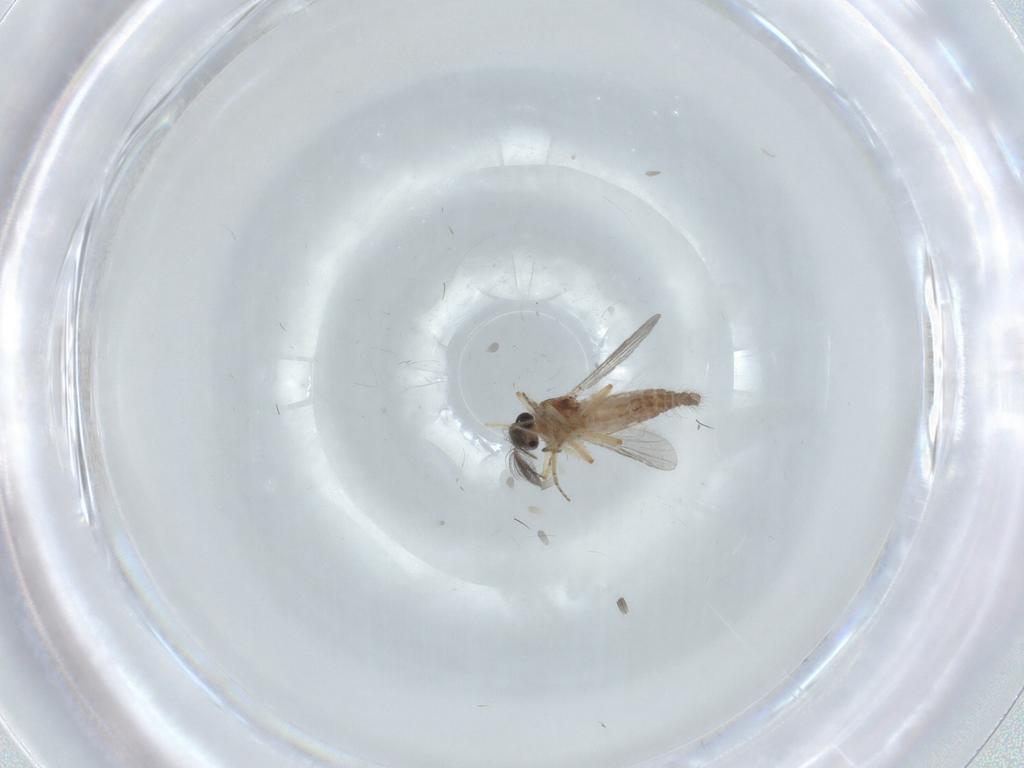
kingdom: Animalia
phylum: Arthropoda
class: Insecta
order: Diptera
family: Ceratopogonidae
